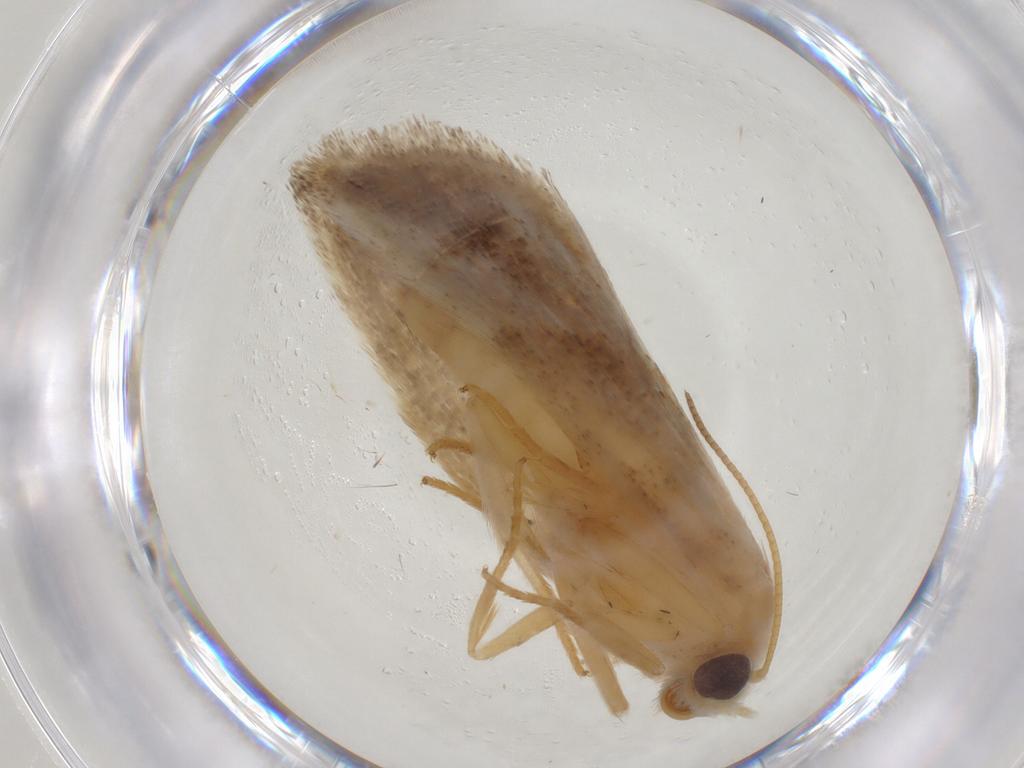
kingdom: Animalia
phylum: Arthropoda
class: Insecta
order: Lepidoptera
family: Erebidae
